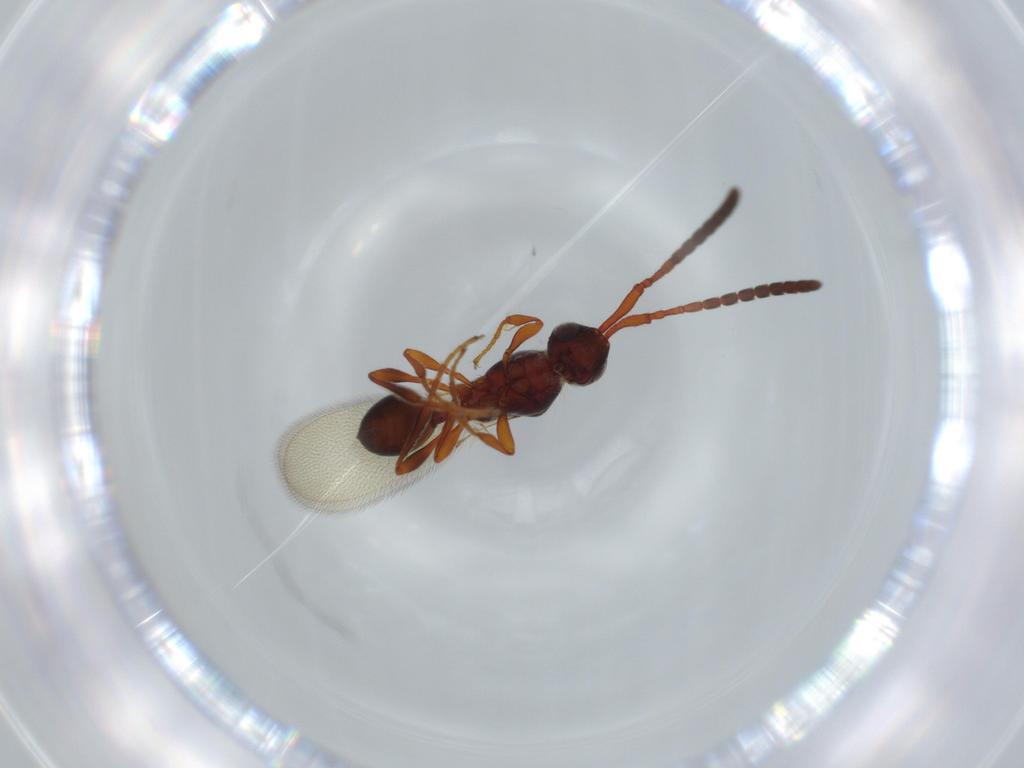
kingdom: Animalia
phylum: Arthropoda
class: Insecta
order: Hymenoptera
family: Diapriidae
